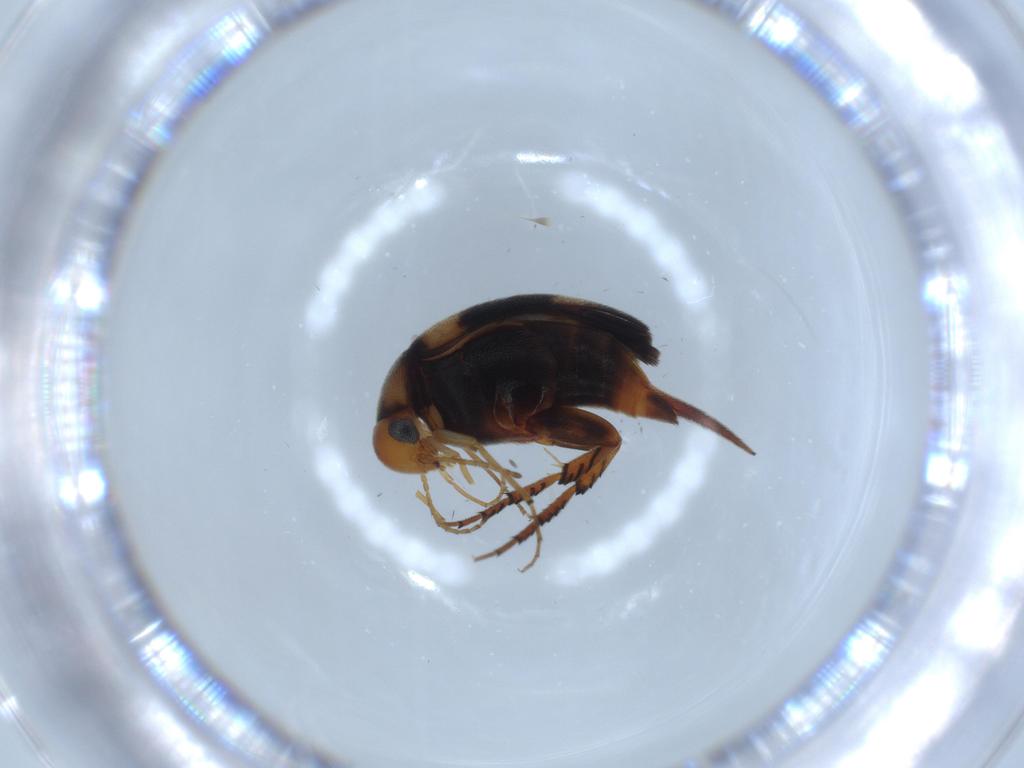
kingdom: Animalia
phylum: Arthropoda
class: Insecta
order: Coleoptera
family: Mordellidae
